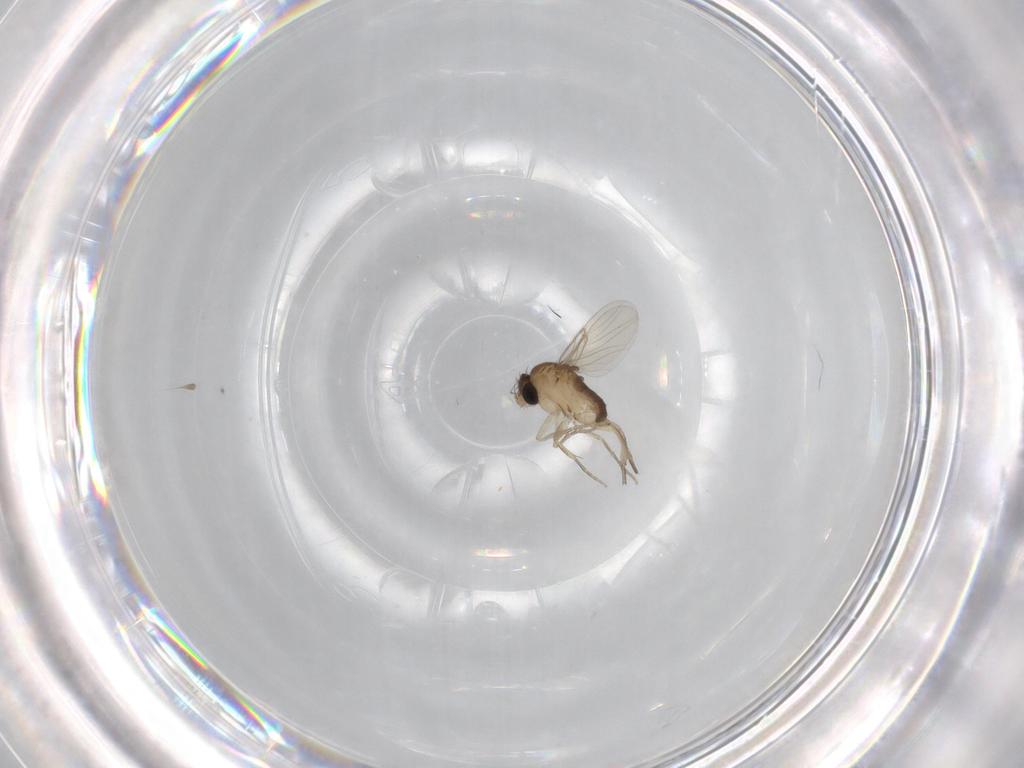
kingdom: Animalia
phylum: Arthropoda
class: Insecta
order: Diptera
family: Phoridae
